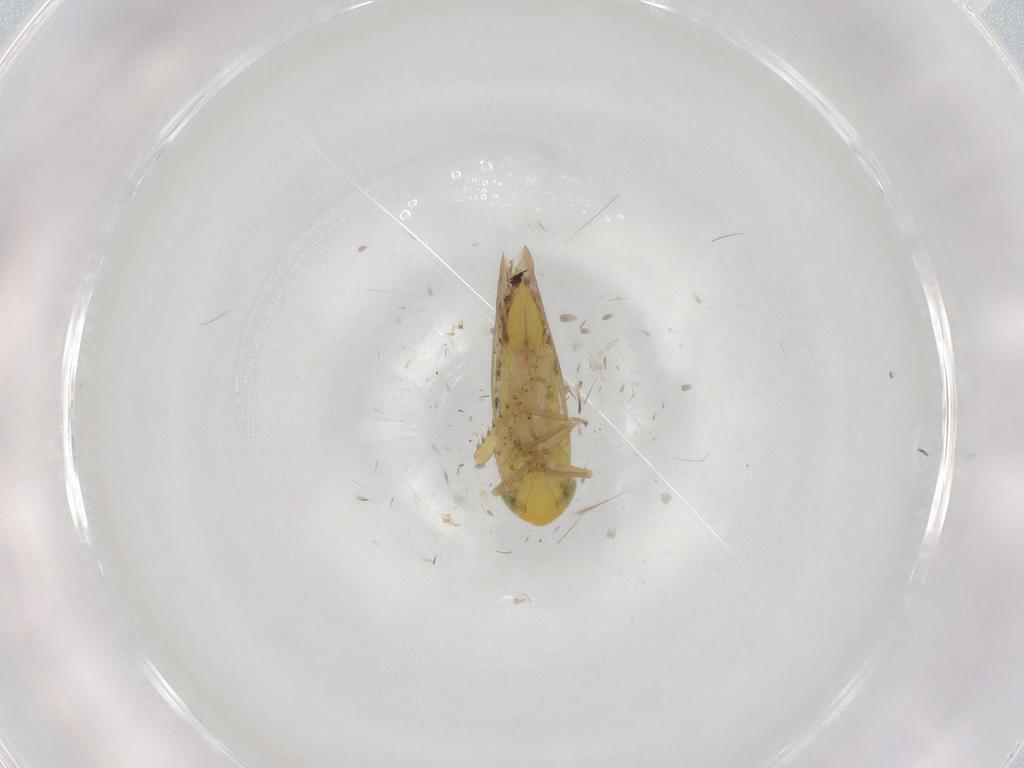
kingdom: Animalia
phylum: Arthropoda
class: Insecta
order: Hemiptera
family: Cicadellidae
